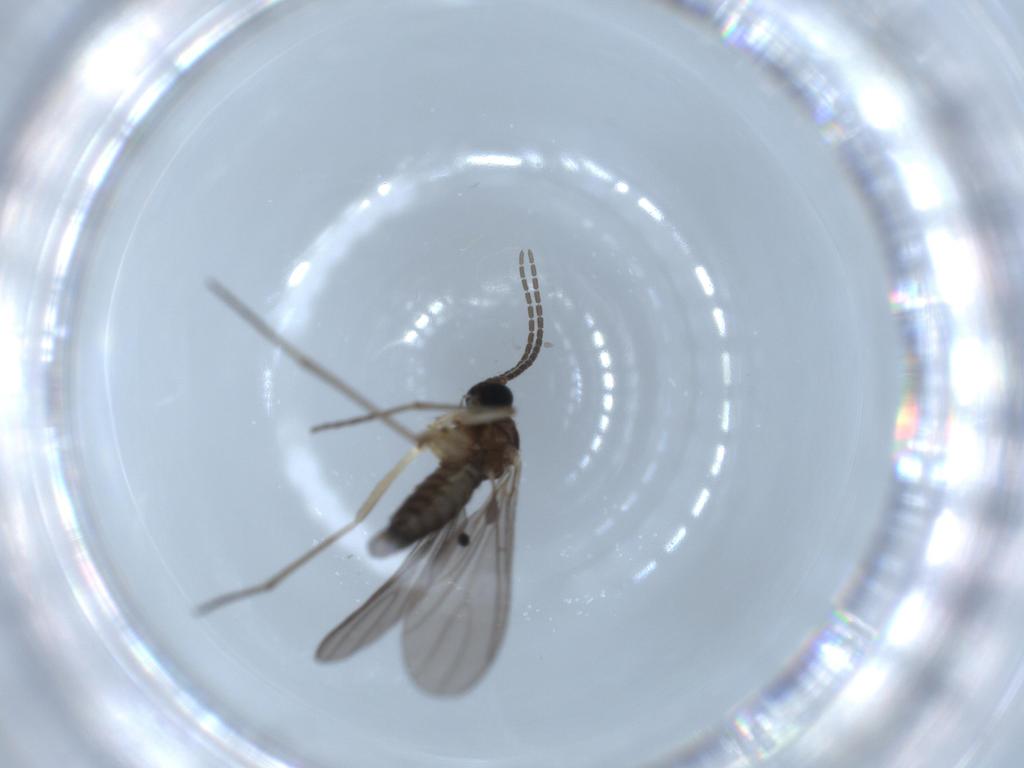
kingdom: Animalia
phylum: Arthropoda
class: Insecta
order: Diptera
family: Sciaridae
